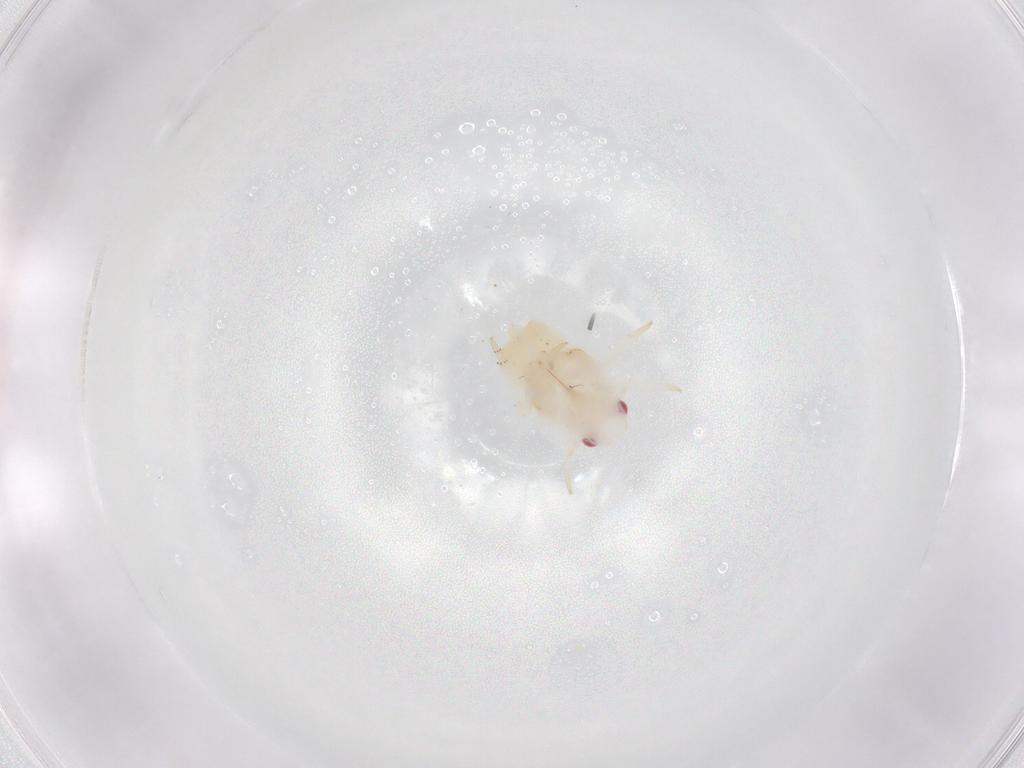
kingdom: Animalia
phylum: Arthropoda
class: Insecta
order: Hemiptera
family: Flatidae
